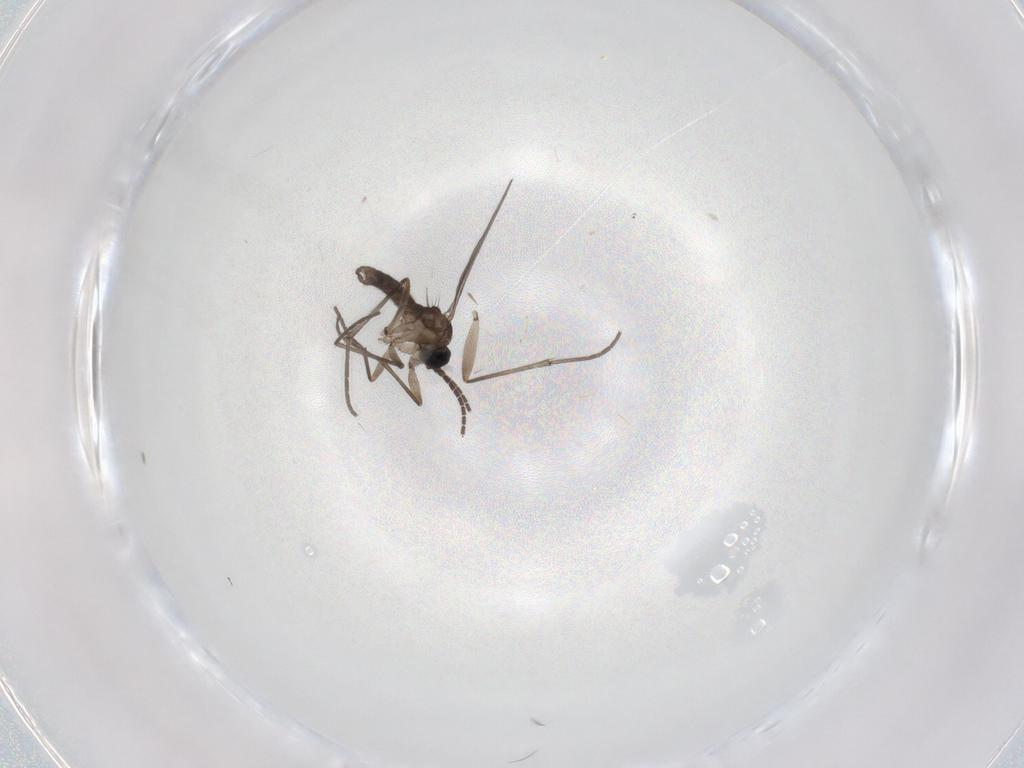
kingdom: Animalia
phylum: Arthropoda
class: Insecta
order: Diptera
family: Sciaridae
